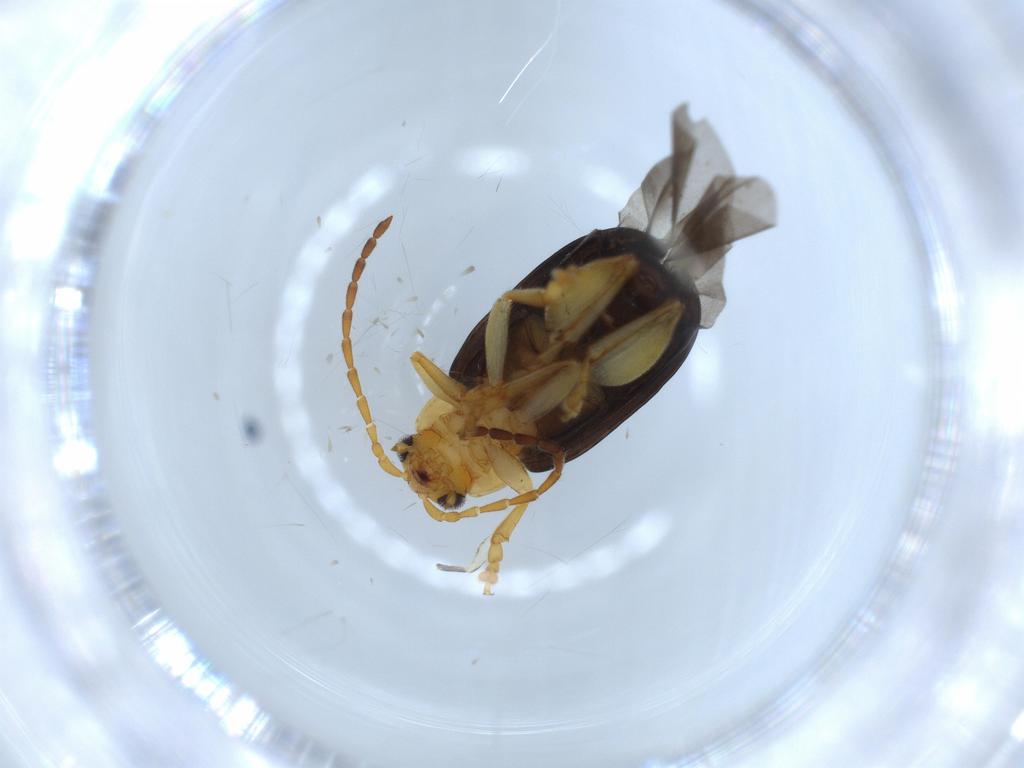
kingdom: Animalia
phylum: Arthropoda
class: Insecta
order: Coleoptera
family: Chrysomelidae
